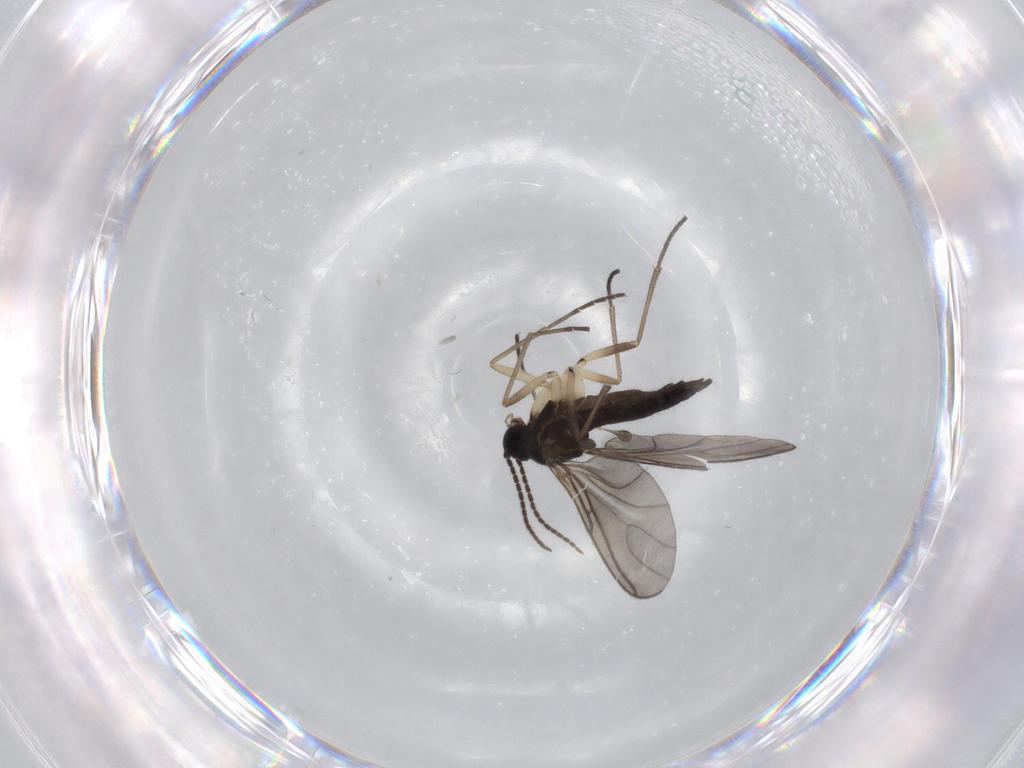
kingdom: Animalia
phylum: Arthropoda
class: Insecta
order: Diptera
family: Sciaridae
